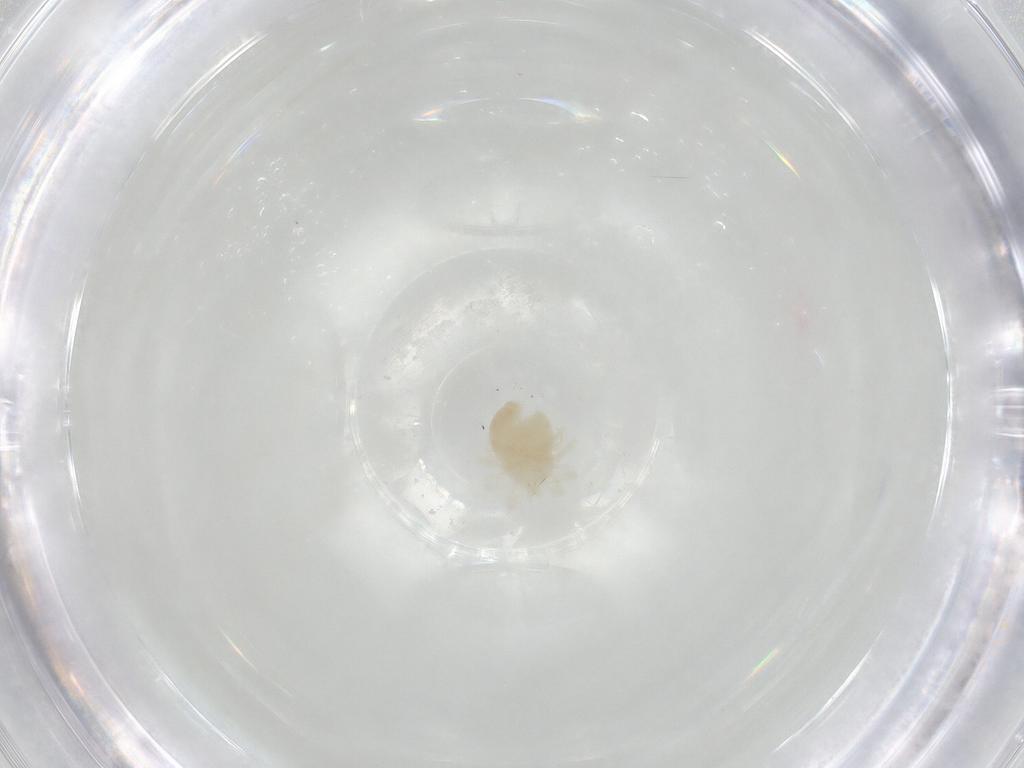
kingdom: Animalia
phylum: Arthropoda
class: Arachnida
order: Trombidiformes
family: Anystidae
